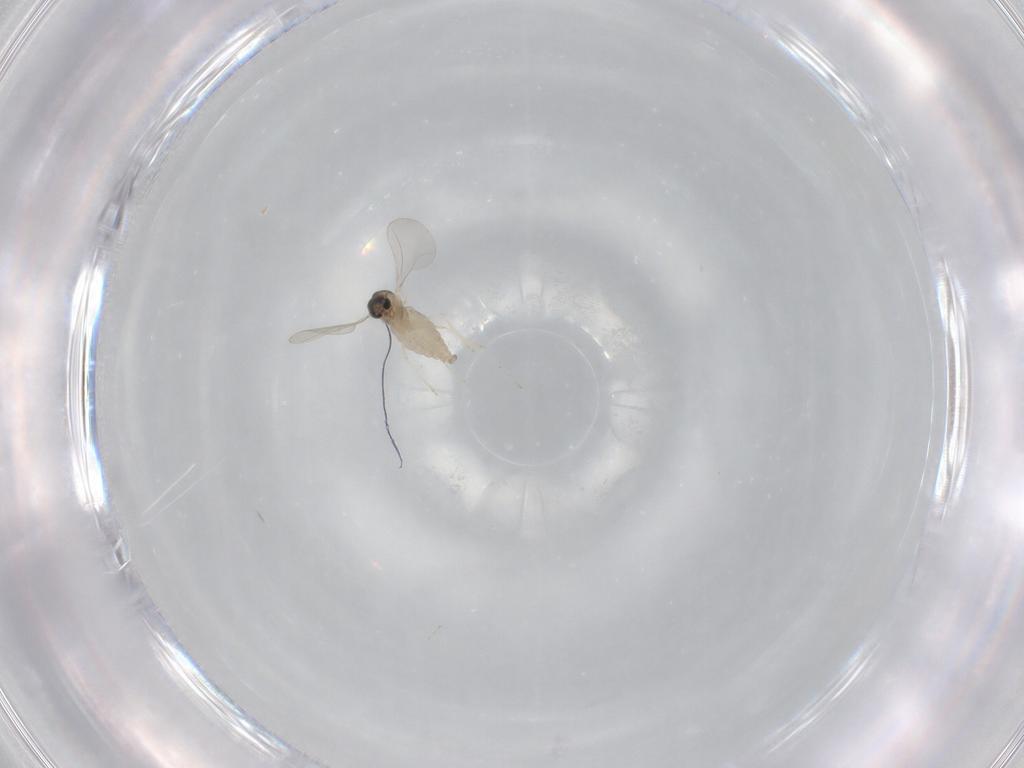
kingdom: Animalia
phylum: Arthropoda
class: Insecta
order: Diptera
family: Cecidomyiidae
